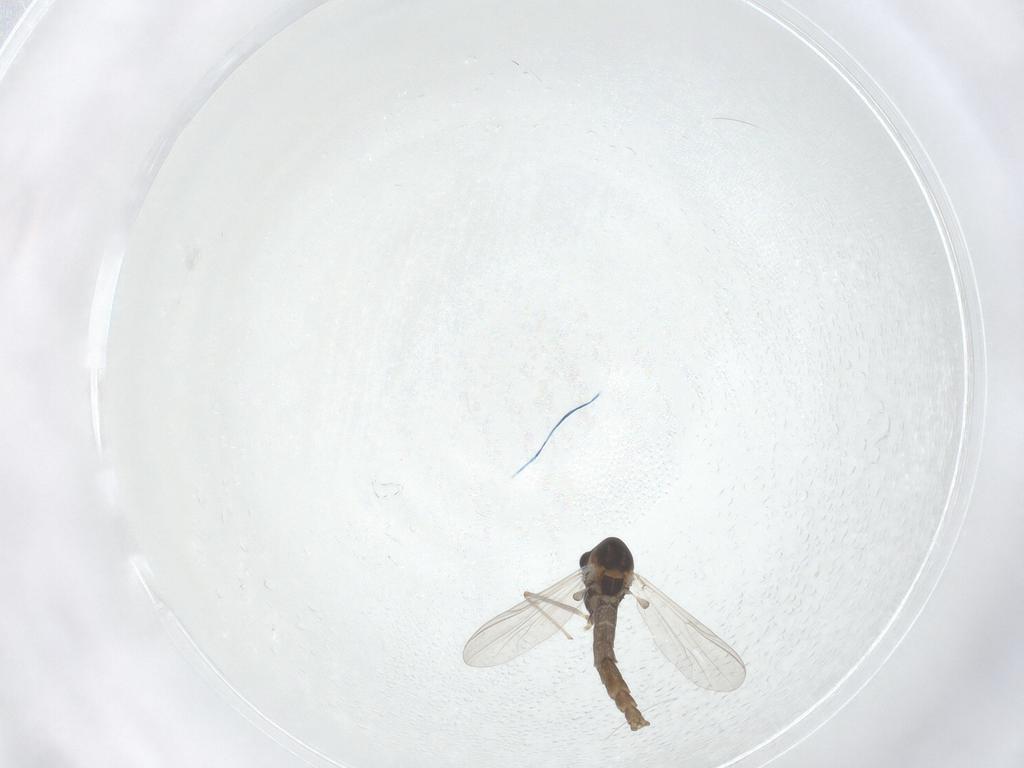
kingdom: Animalia
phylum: Arthropoda
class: Insecta
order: Diptera
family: Chironomidae
